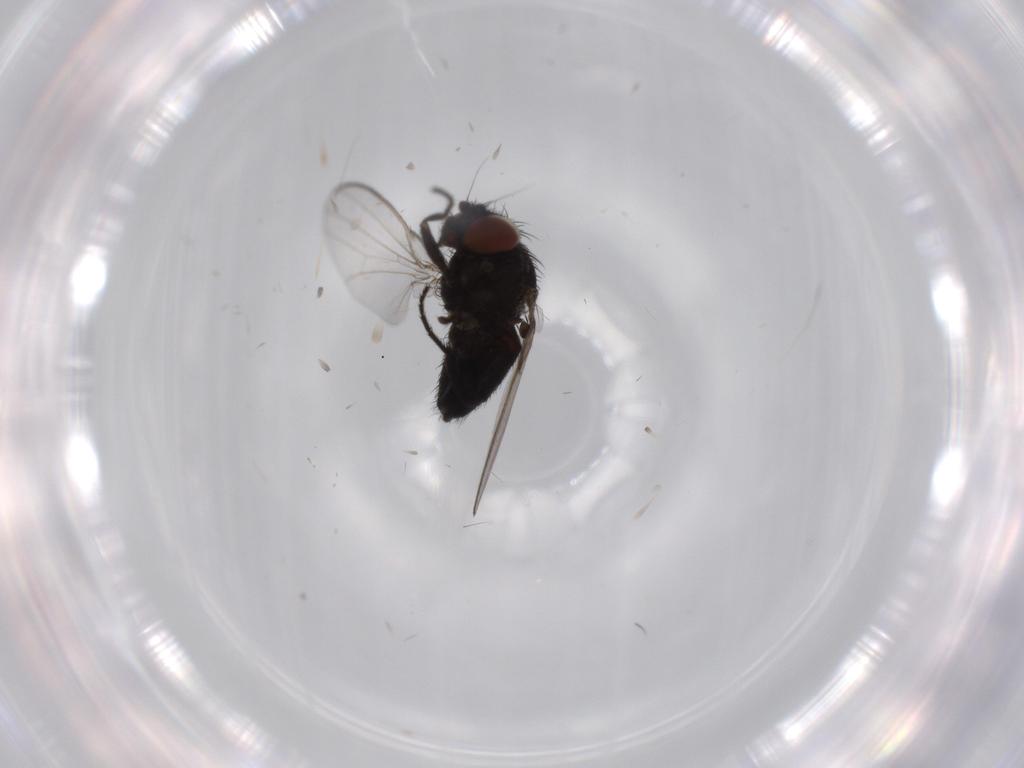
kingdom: Animalia
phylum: Arthropoda
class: Insecta
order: Diptera
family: Milichiidae
